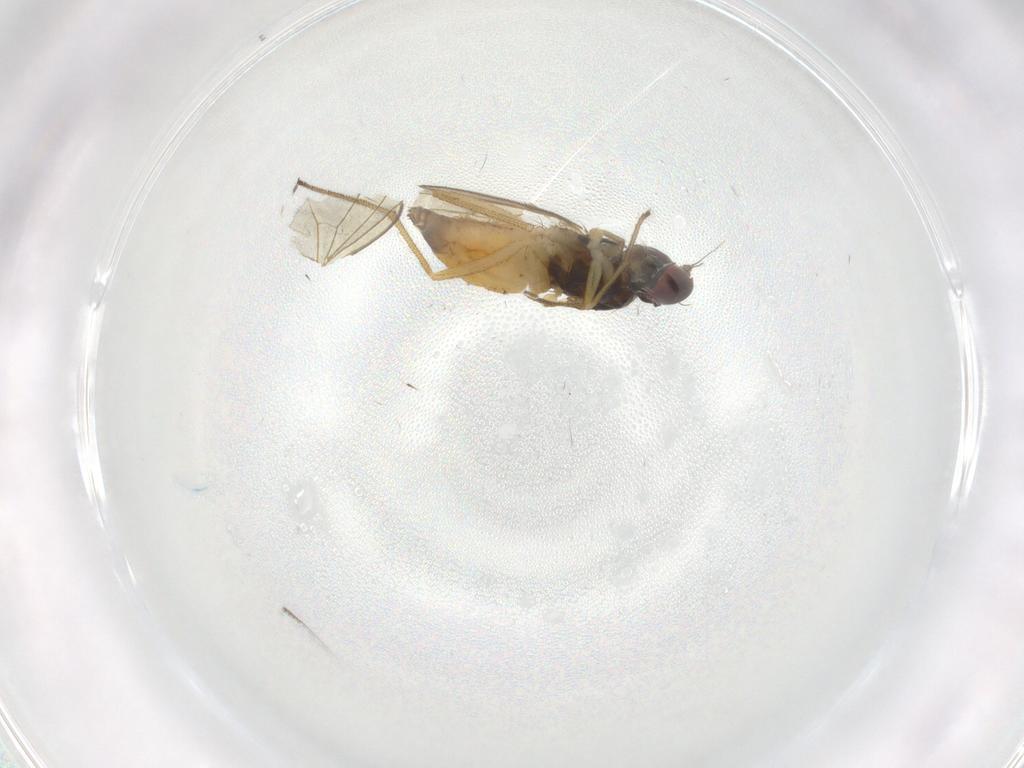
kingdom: Animalia
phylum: Arthropoda
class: Insecta
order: Diptera
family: Dolichopodidae
